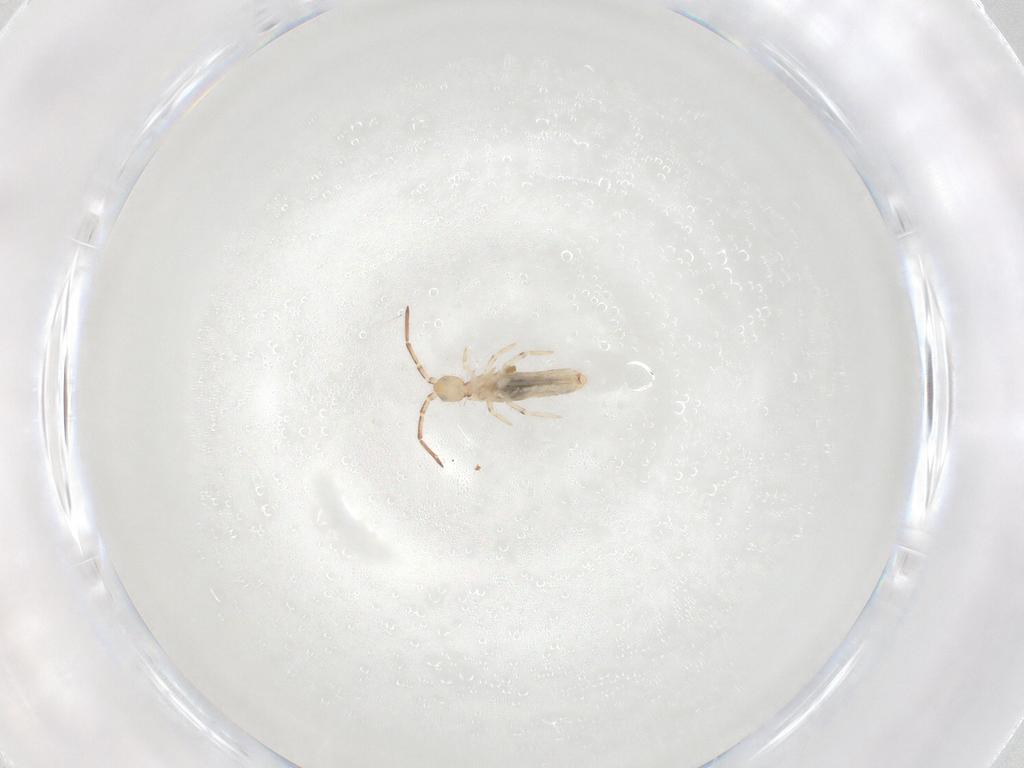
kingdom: Animalia
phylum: Arthropoda
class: Collembola
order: Entomobryomorpha
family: Entomobryidae
